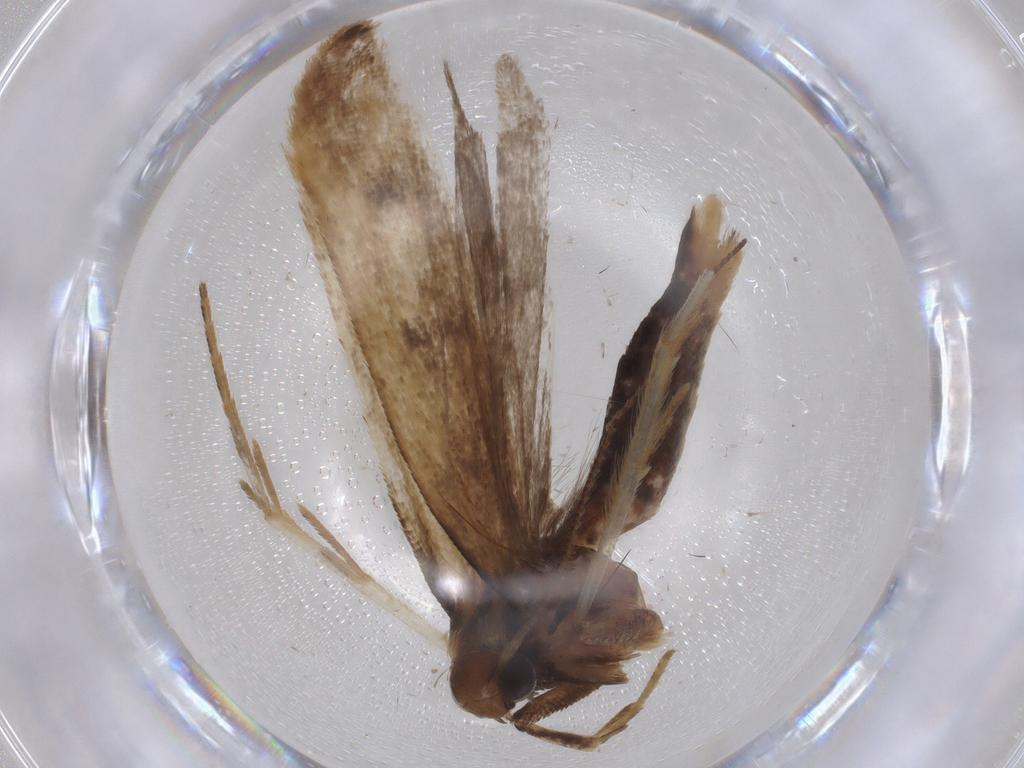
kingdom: Animalia
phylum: Arthropoda
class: Insecta
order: Lepidoptera
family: Gelechiidae
